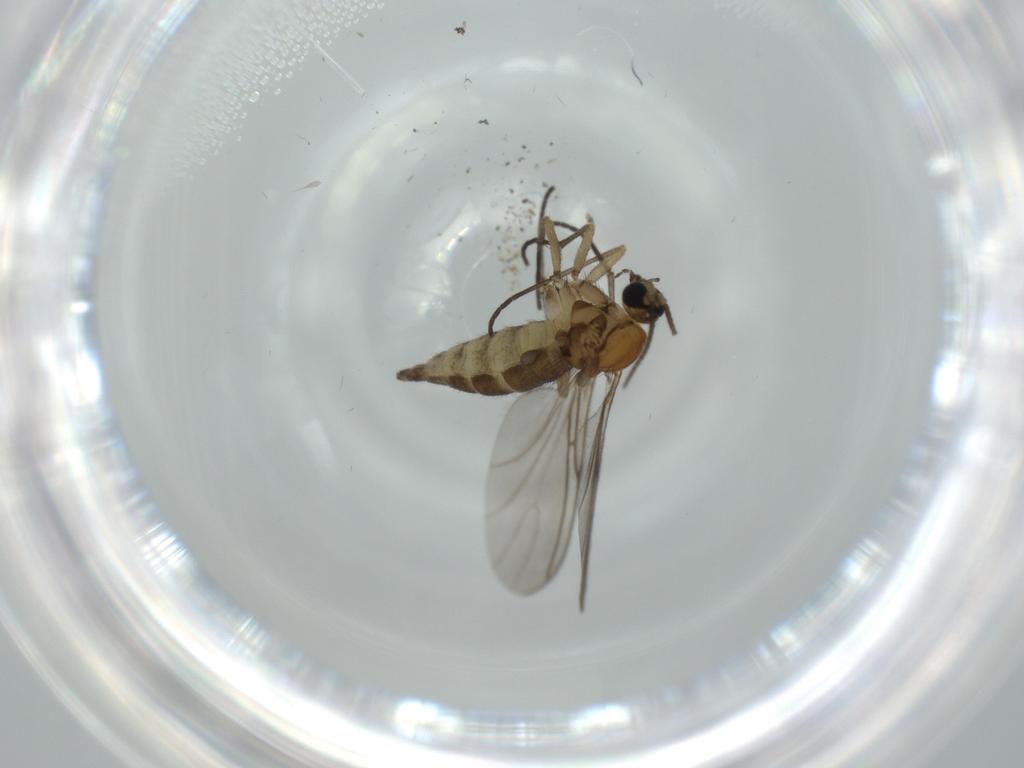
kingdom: Animalia
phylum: Arthropoda
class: Insecta
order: Diptera
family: Sciaridae
